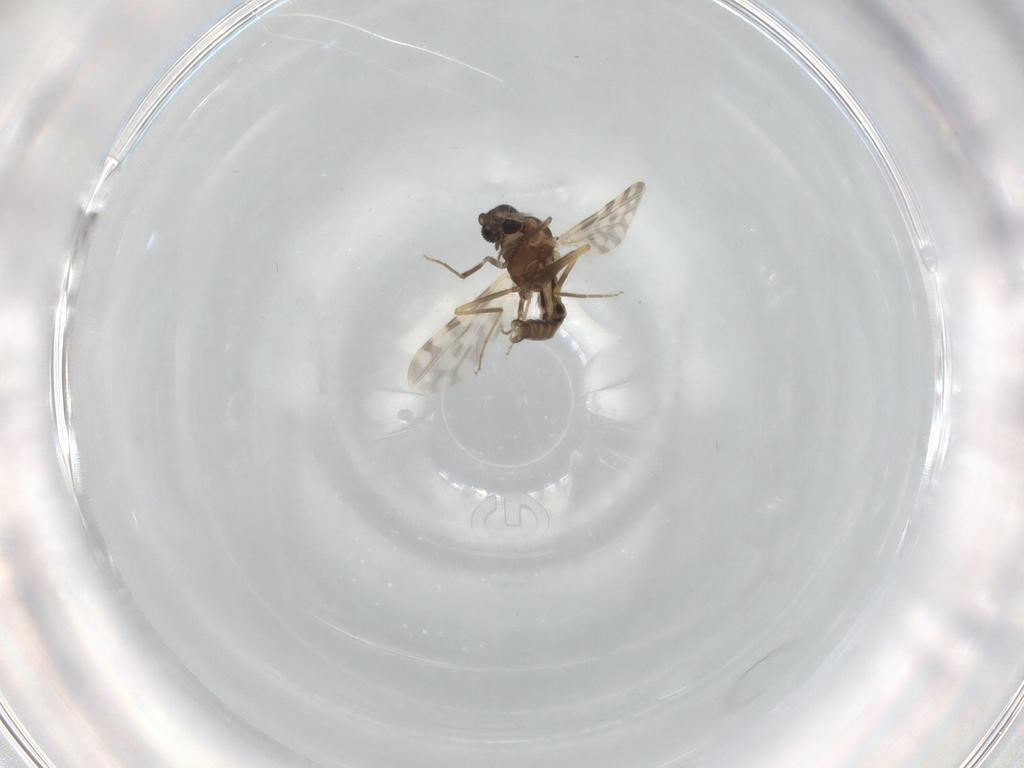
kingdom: Animalia
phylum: Arthropoda
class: Insecta
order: Diptera
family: Ceratopogonidae
